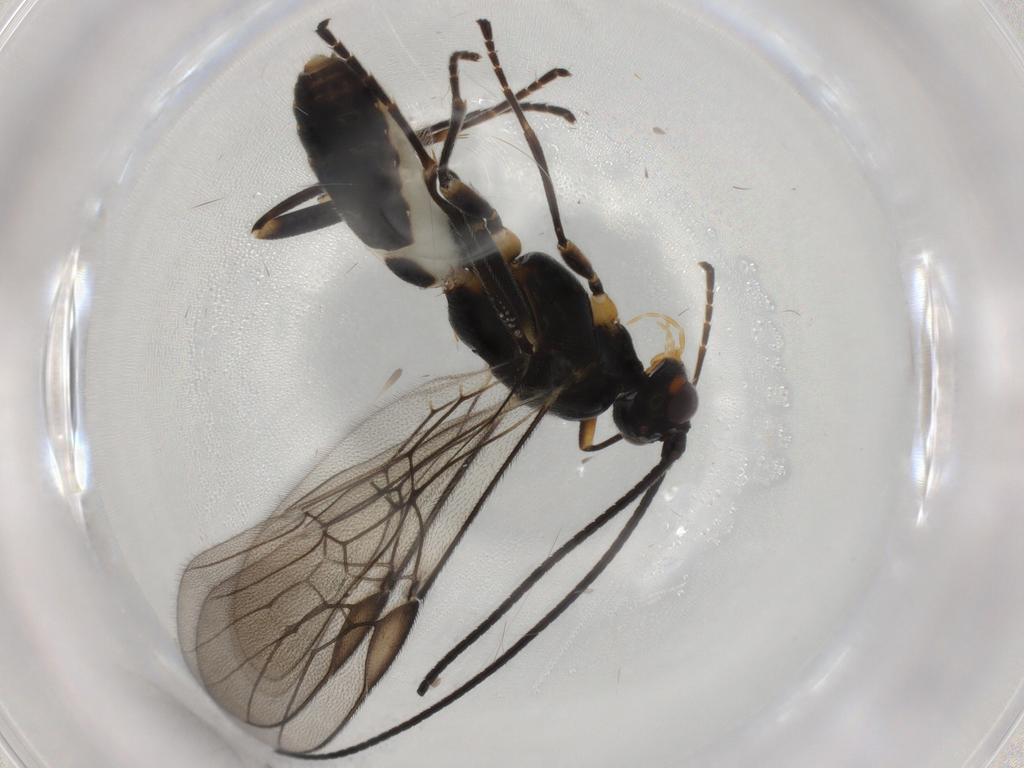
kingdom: Animalia
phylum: Arthropoda
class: Insecta
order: Hymenoptera
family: Braconidae
